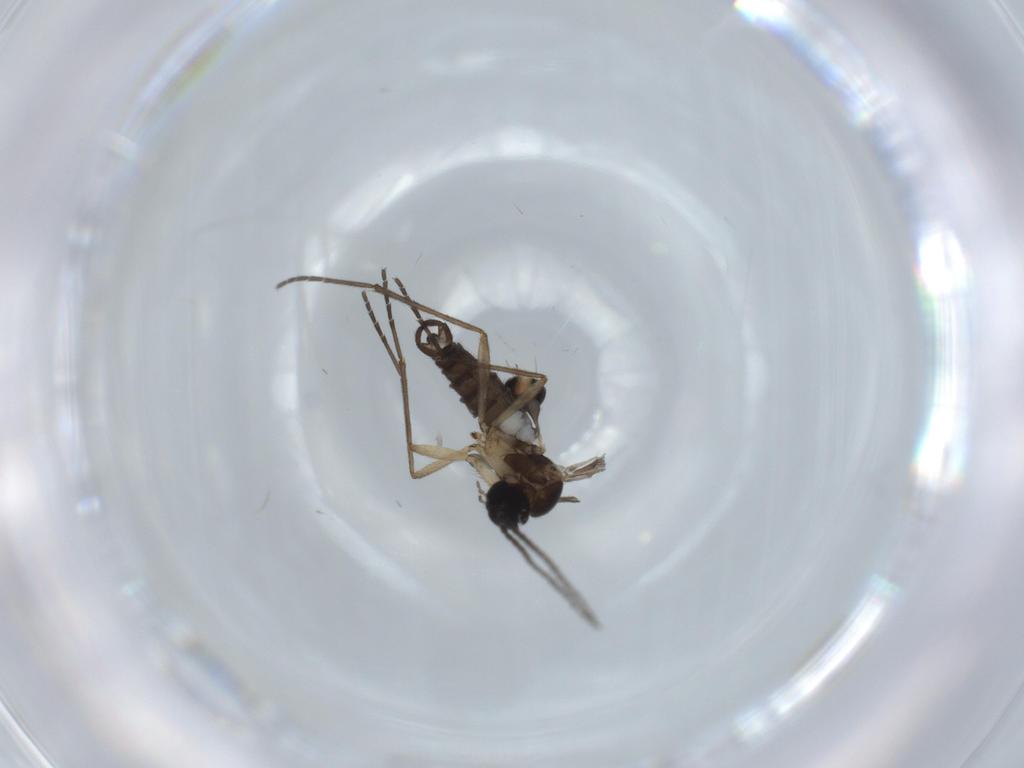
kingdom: Animalia
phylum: Arthropoda
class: Insecta
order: Diptera
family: Sciaridae
